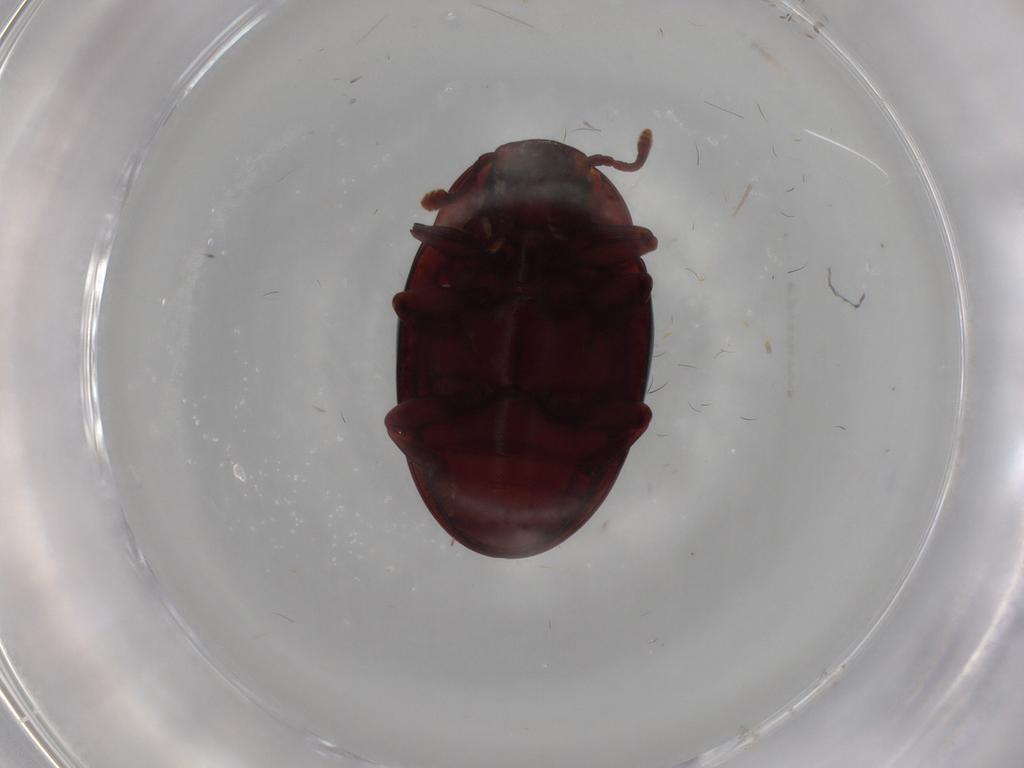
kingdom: Animalia
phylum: Arthropoda
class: Insecta
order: Coleoptera
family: Zopheridae
